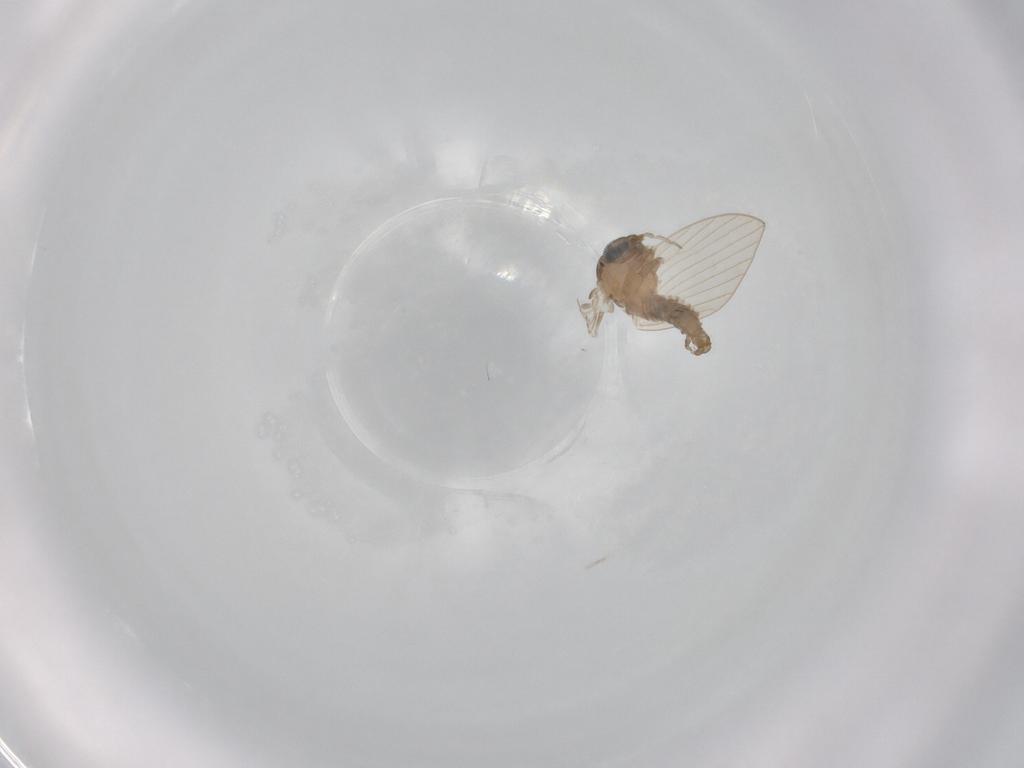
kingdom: Animalia
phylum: Arthropoda
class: Insecta
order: Diptera
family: Psychodidae
